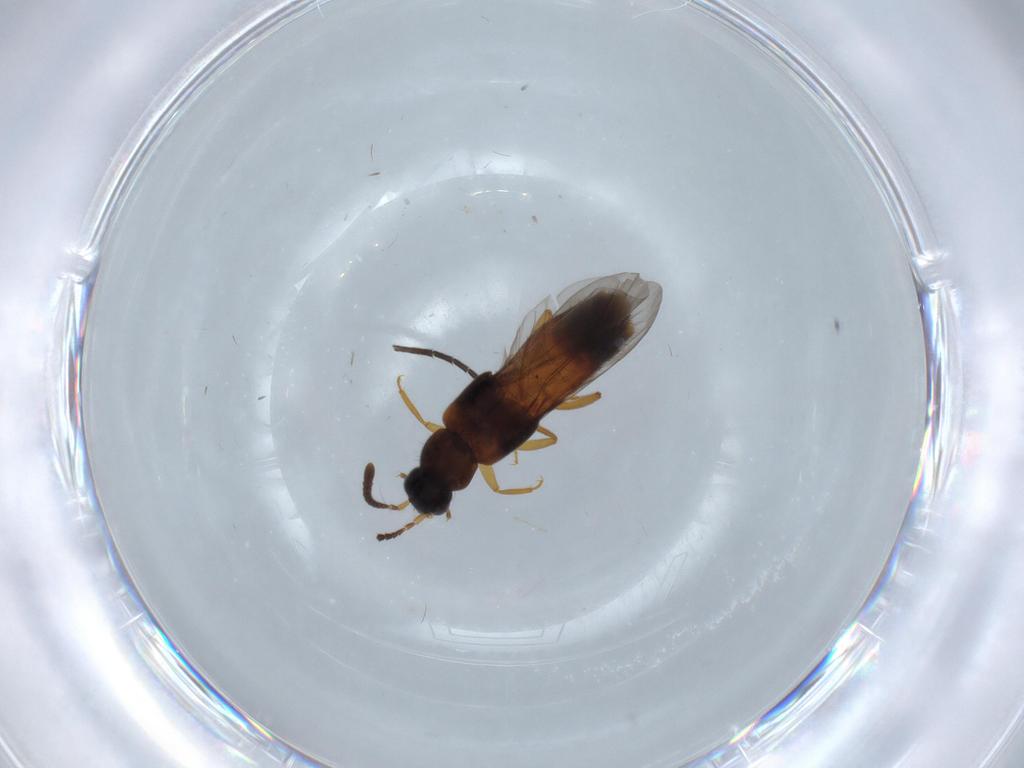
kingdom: Animalia
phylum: Arthropoda
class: Insecta
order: Coleoptera
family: Staphylinidae
